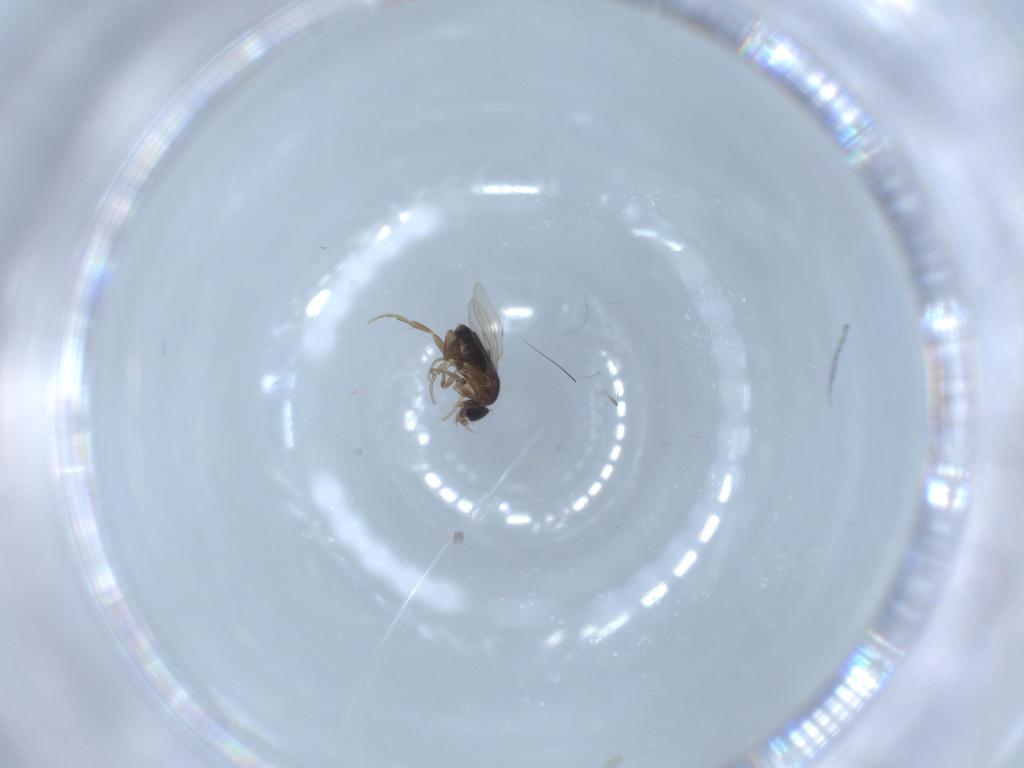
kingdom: Animalia
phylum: Arthropoda
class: Insecta
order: Diptera
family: Phoridae
